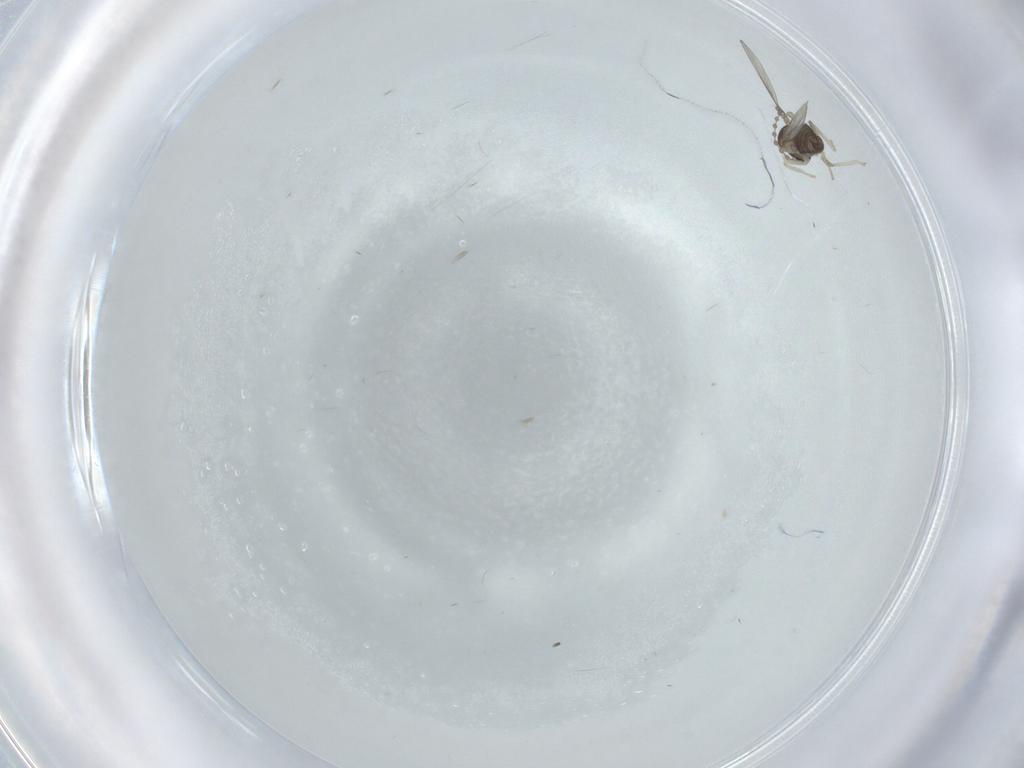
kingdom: Animalia
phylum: Arthropoda
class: Insecta
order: Diptera
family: Cecidomyiidae
